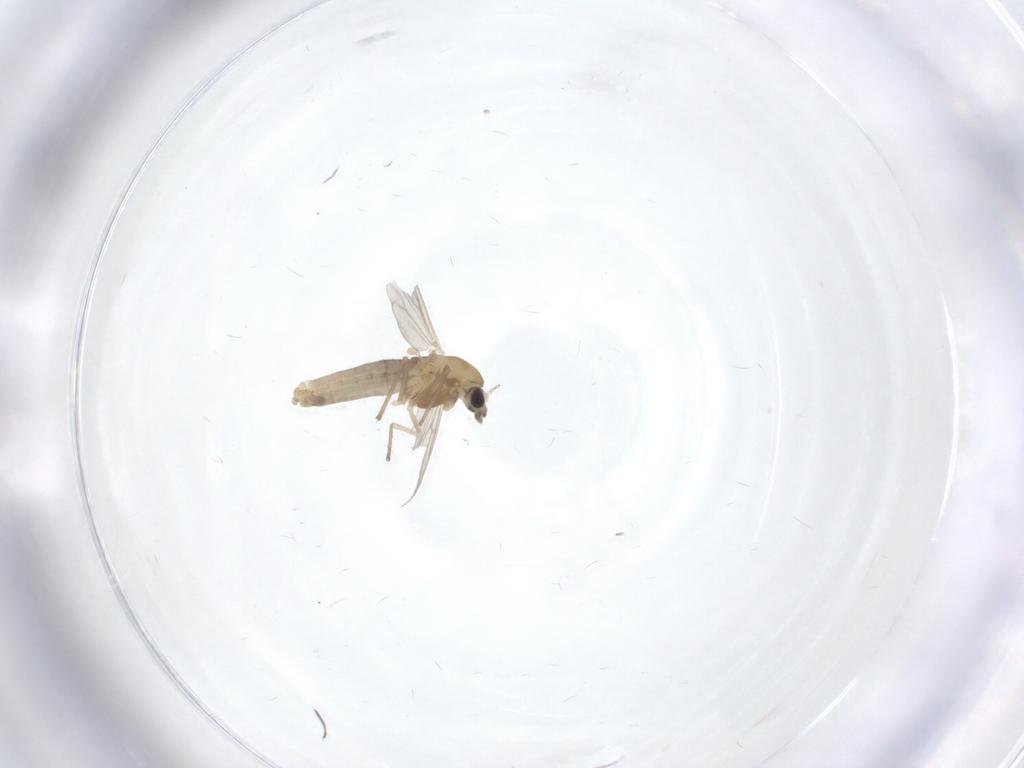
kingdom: Animalia
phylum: Arthropoda
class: Insecta
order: Diptera
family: Chironomidae
